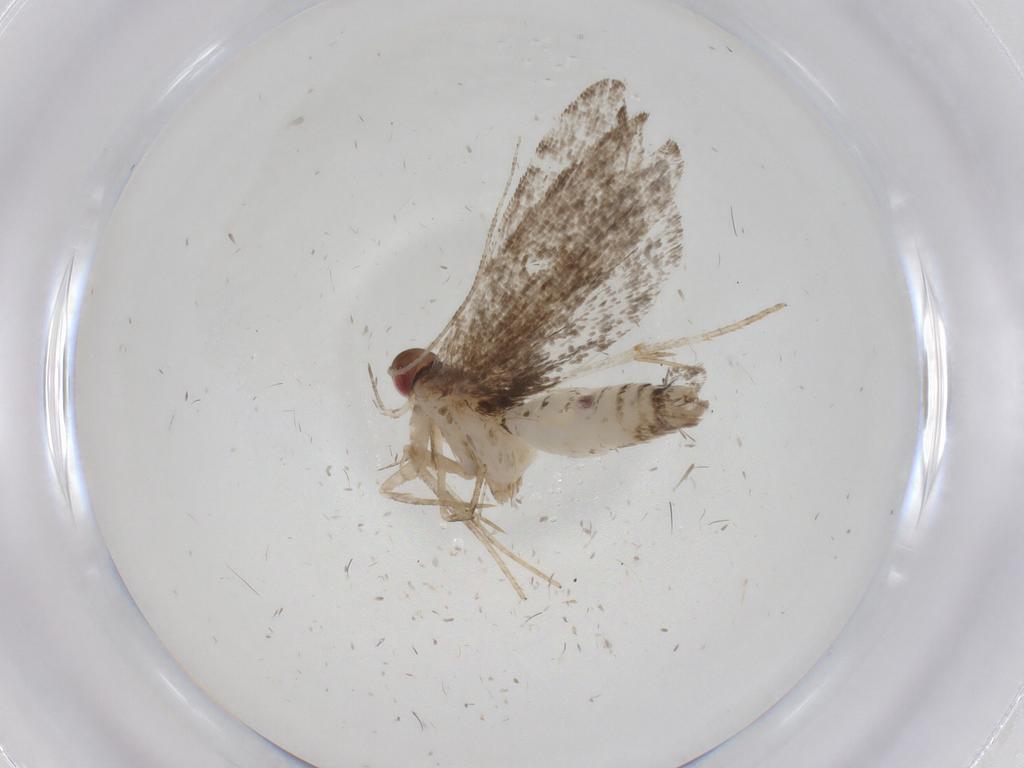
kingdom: Animalia
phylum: Arthropoda
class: Insecta
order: Lepidoptera
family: Gelechiidae
